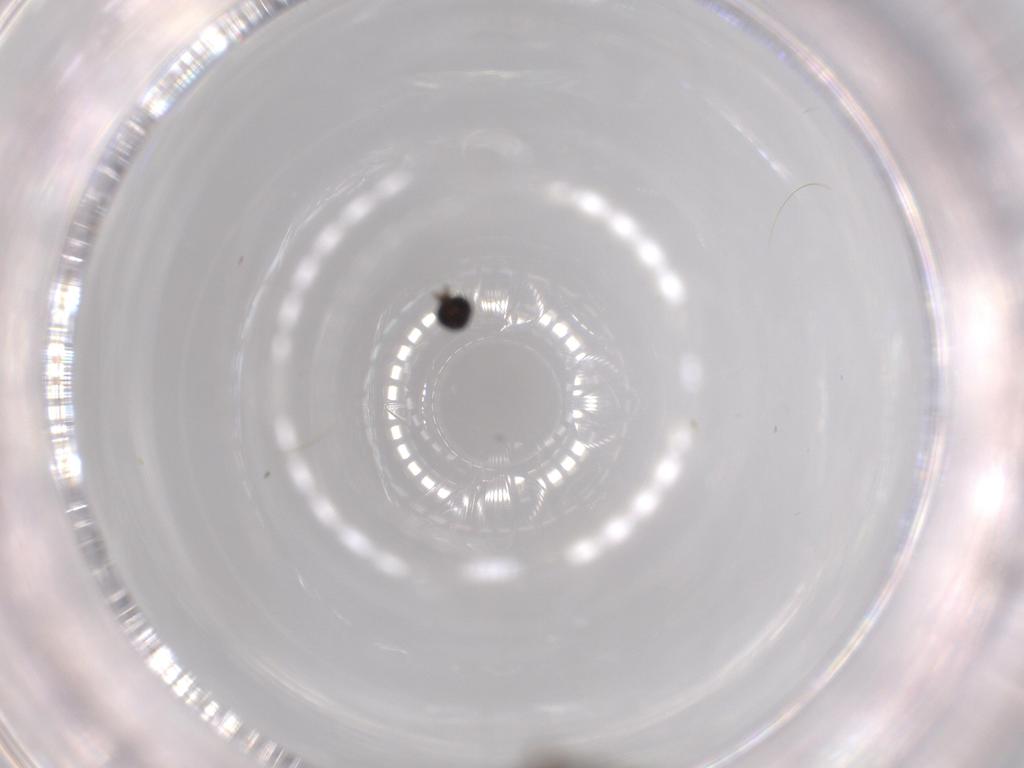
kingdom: Animalia
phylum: Arthropoda
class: Insecta
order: Diptera
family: Sciaridae
